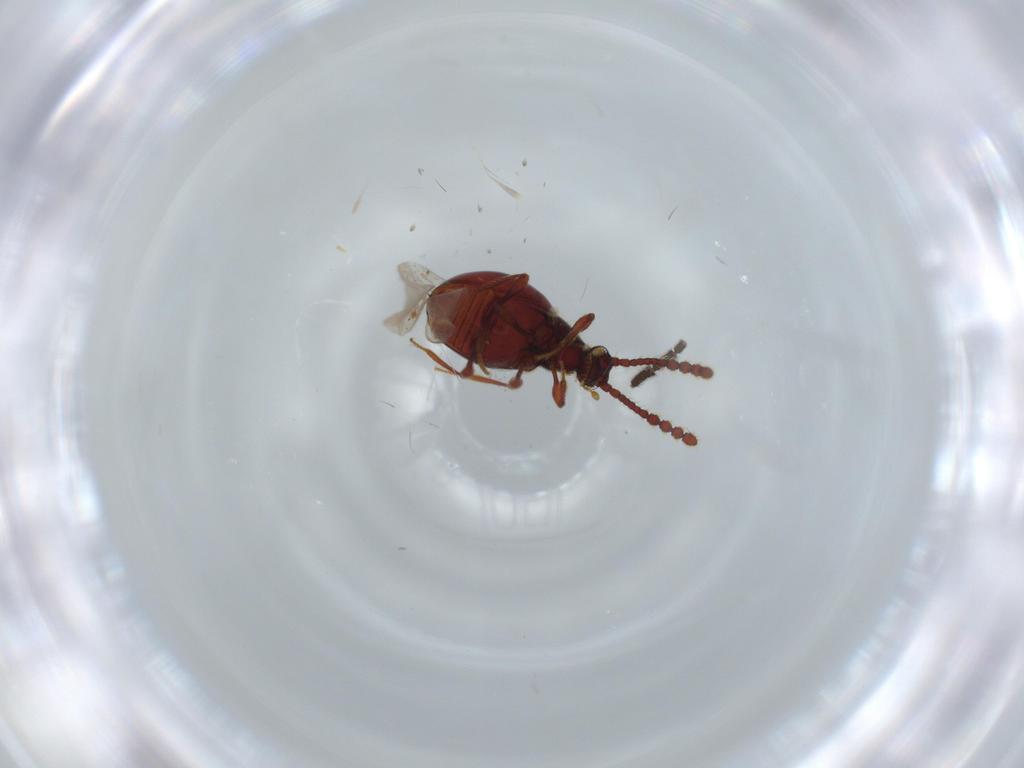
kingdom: Animalia
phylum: Arthropoda
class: Insecta
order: Coleoptera
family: Staphylinidae
